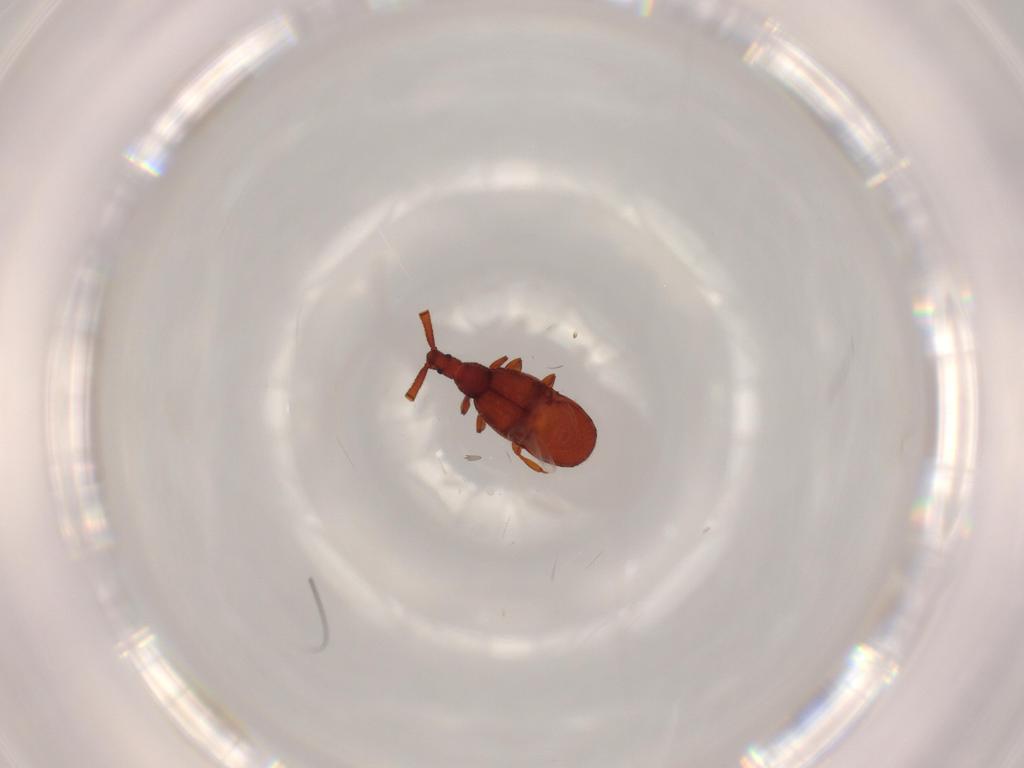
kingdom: Animalia
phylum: Arthropoda
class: Insecta
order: Coleoptera
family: Staphylinidae
